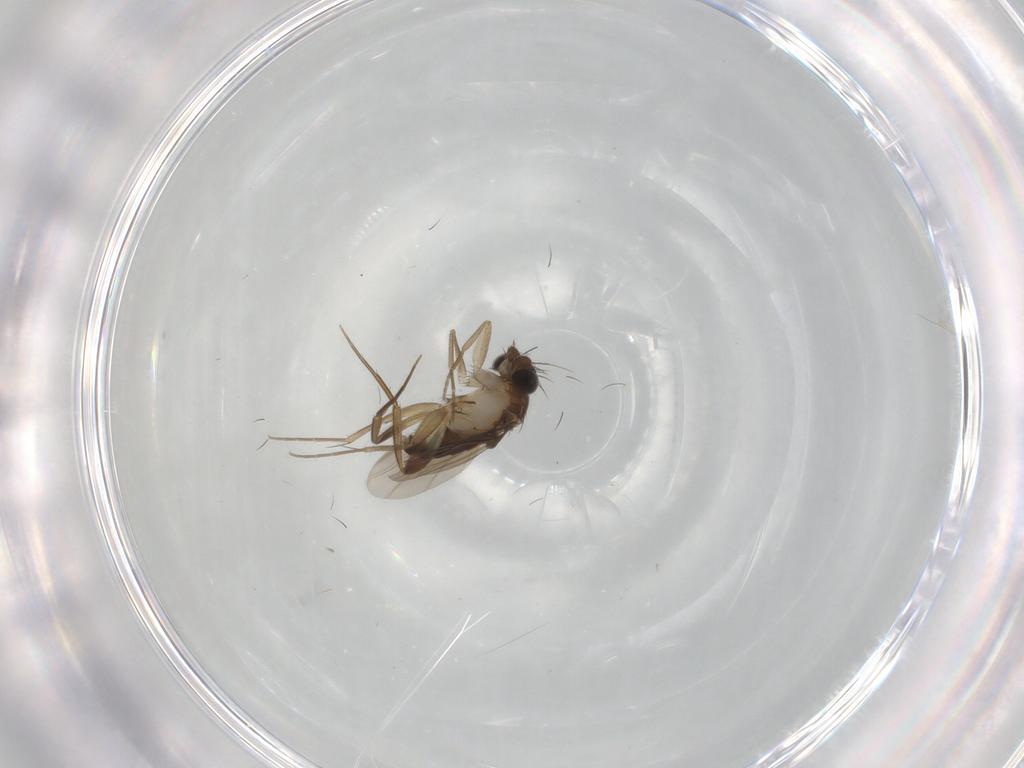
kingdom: Animalia
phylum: Arthropoda
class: Insecta
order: Diptera
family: Phoridae
